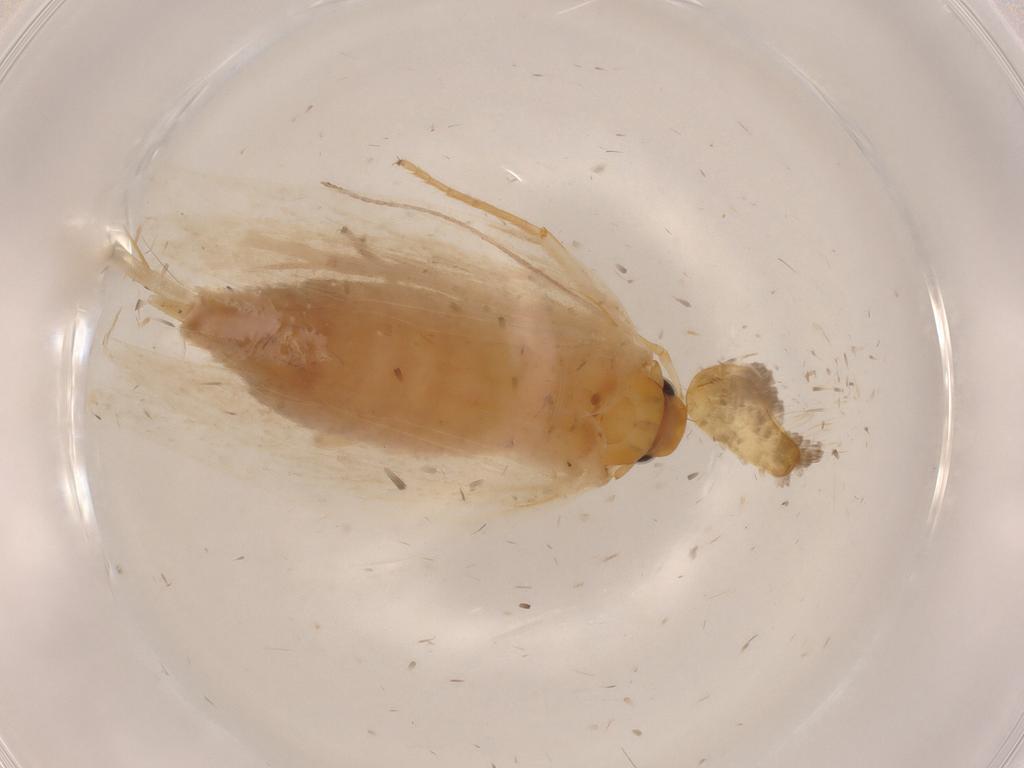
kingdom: Animalia
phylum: Arthropoda
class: Insecta
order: Lepidoptera
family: Cosmopterigidae
